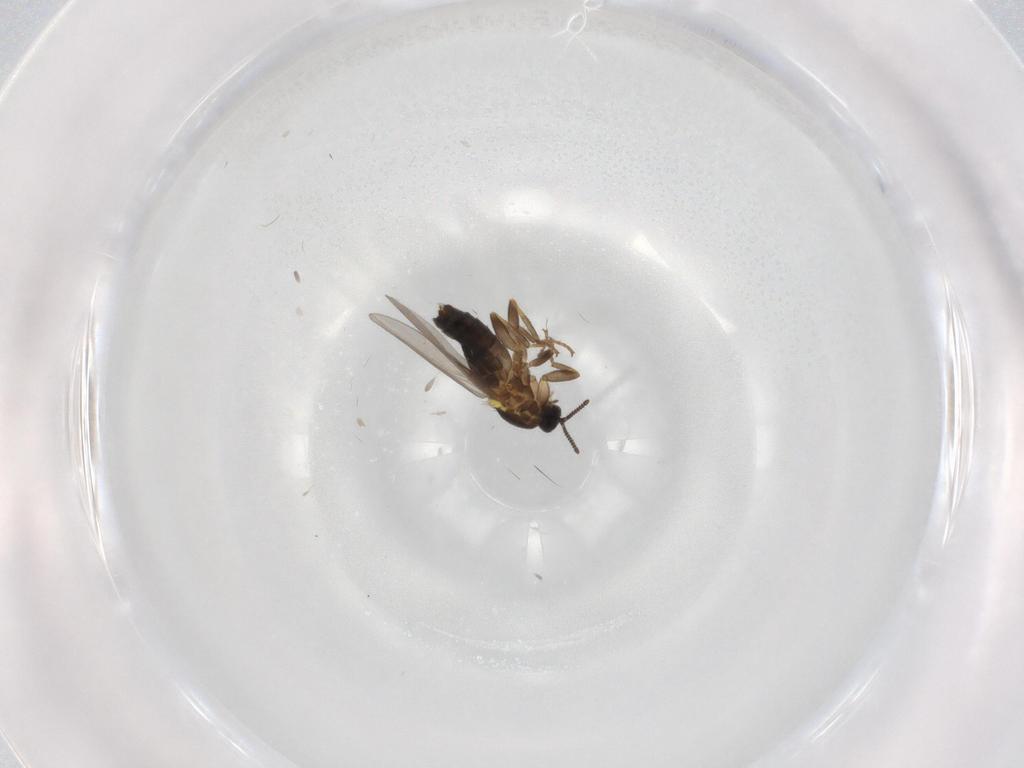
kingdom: Animalia
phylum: Arthropoda
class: Insecta
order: Diptera
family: Scatopsidae
